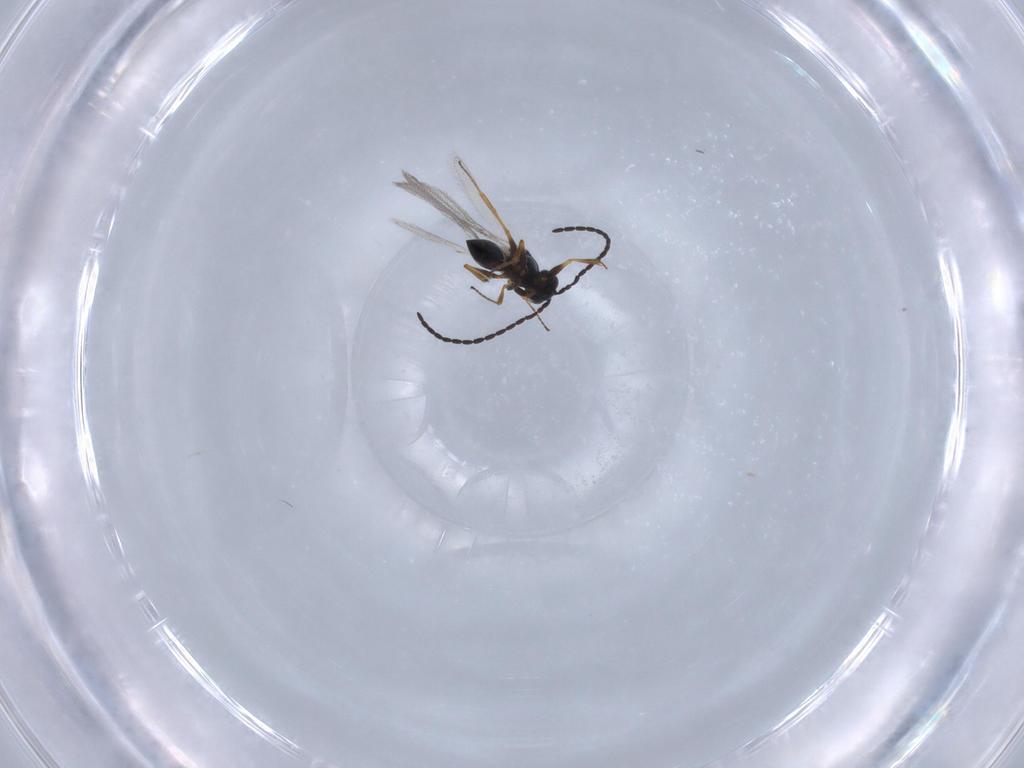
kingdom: Animalia
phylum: Arthropoda
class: Insecta
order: Hymenoptera
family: Figitidae
